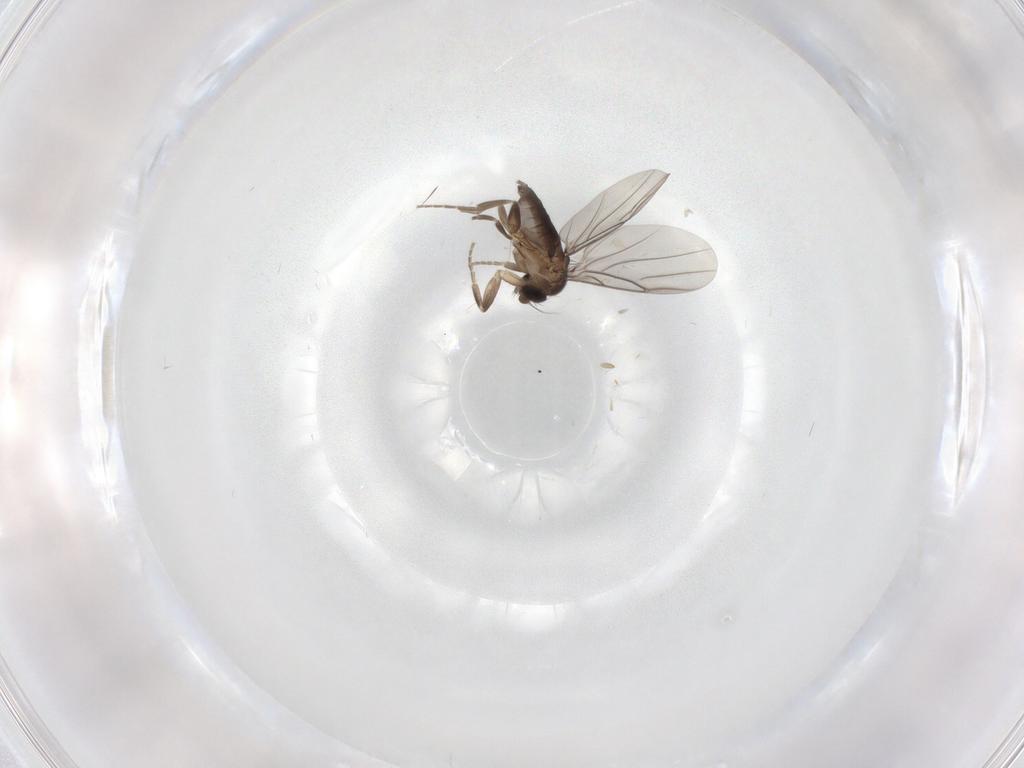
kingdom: Animalia
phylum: Arthropoda
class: Insecta
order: Diptera
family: Phoridae
